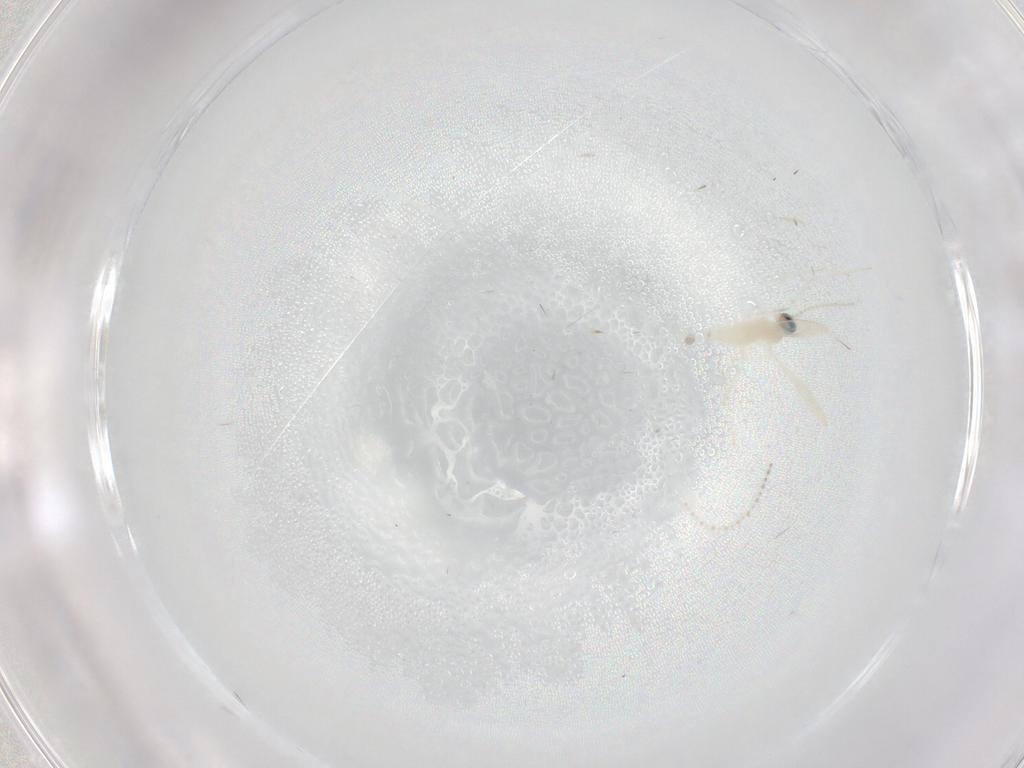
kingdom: Animalia
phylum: Arthropoda
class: Insecta
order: Diptera
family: Cecidomyiidae
